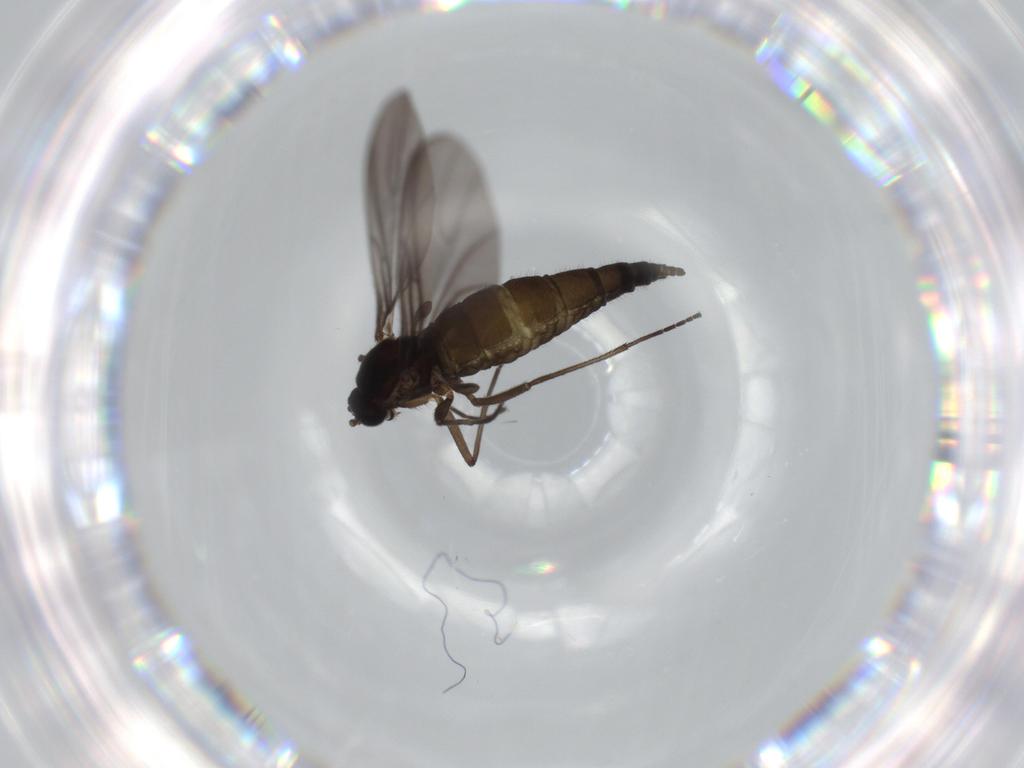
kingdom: Animalia
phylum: Arthropoda
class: Insecta
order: Diptera
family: Sciaridae
